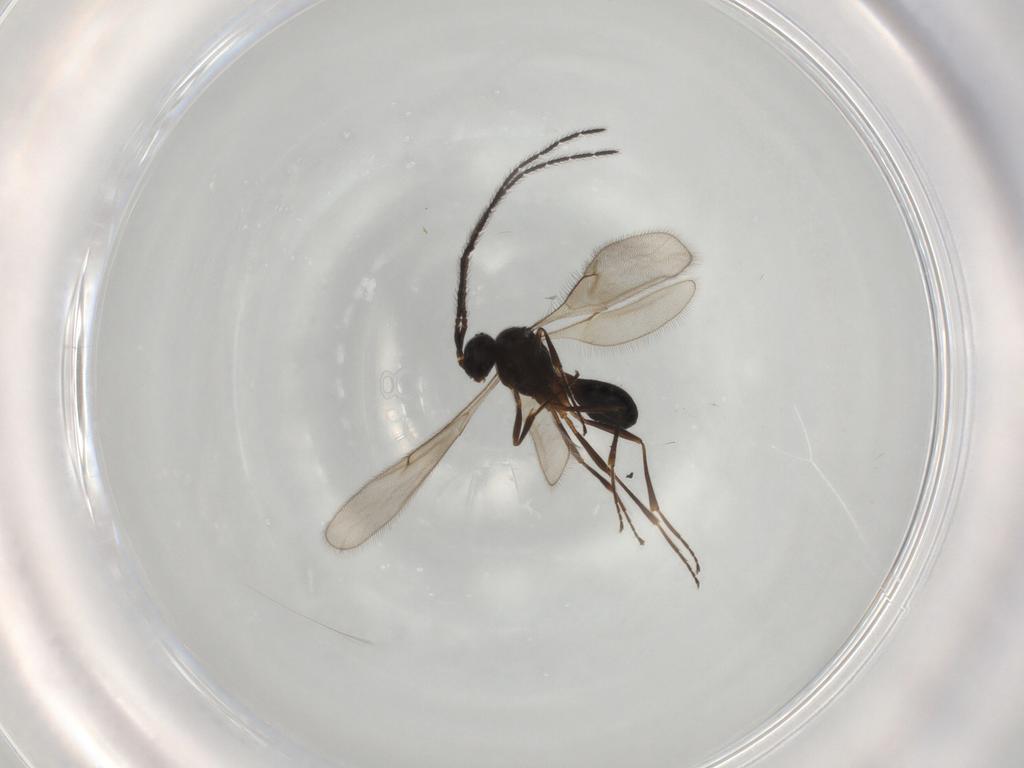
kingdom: Animalia
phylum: Arthropoda
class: Insecta
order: Hymenoptera
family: Scelionidae
